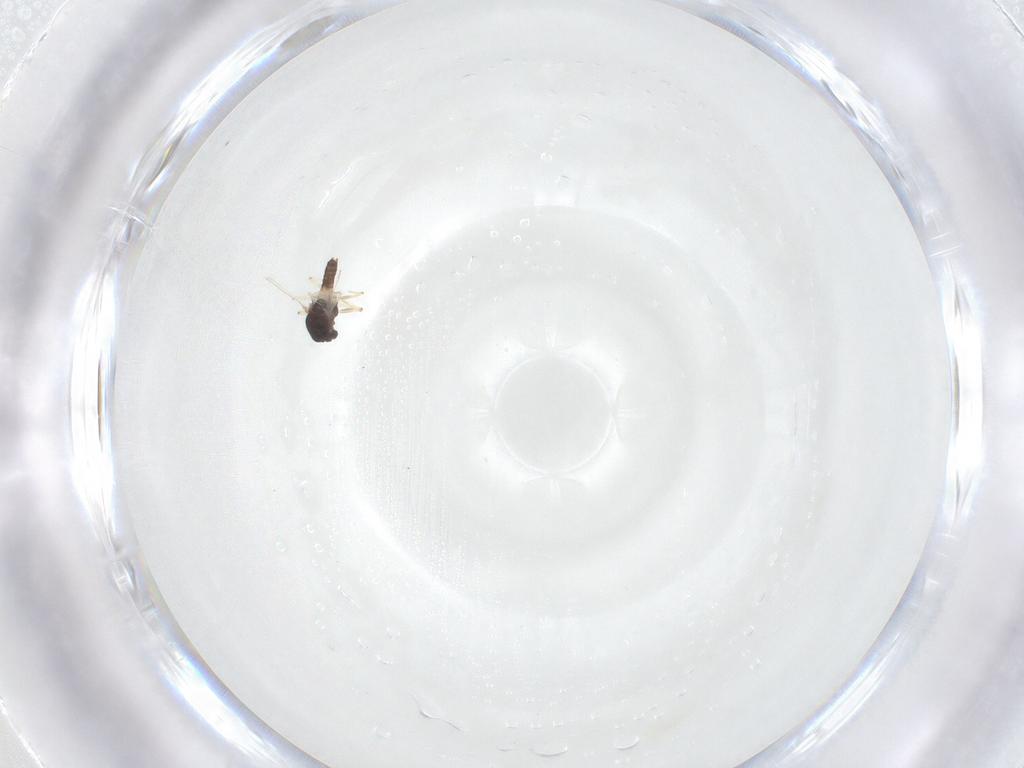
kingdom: Animalia
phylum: Arthropoda
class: Insecta
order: Diptera
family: Chironomidae
